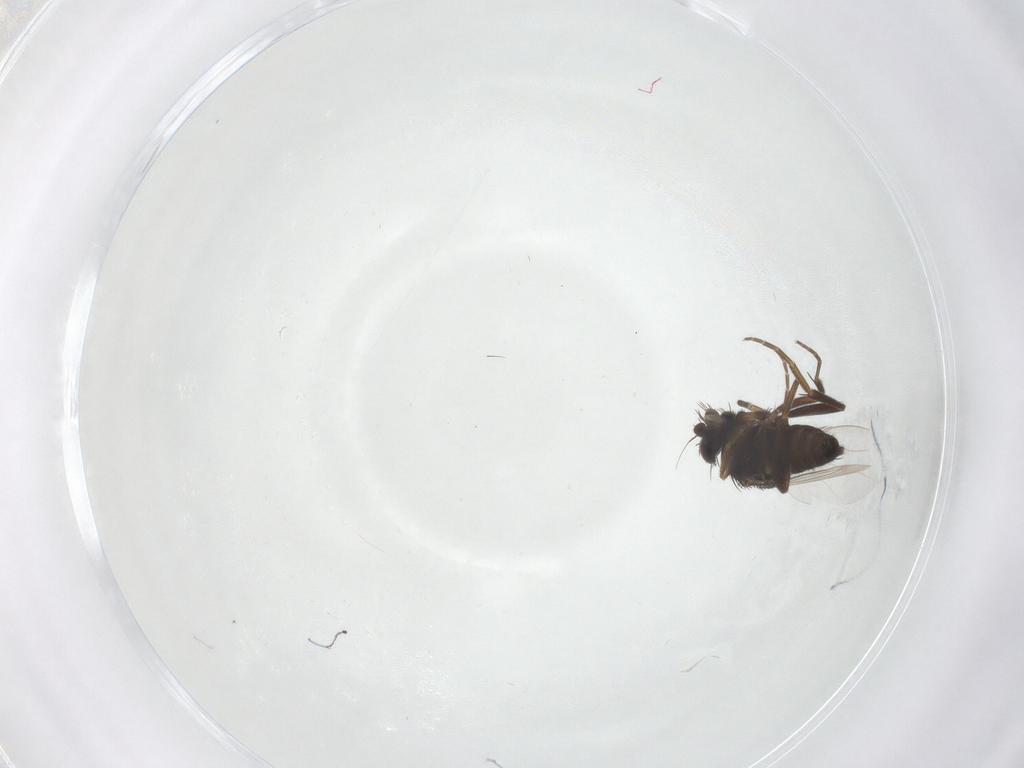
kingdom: Animalia
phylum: Arthropoda
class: Insecta
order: Diptera
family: Phoridae
